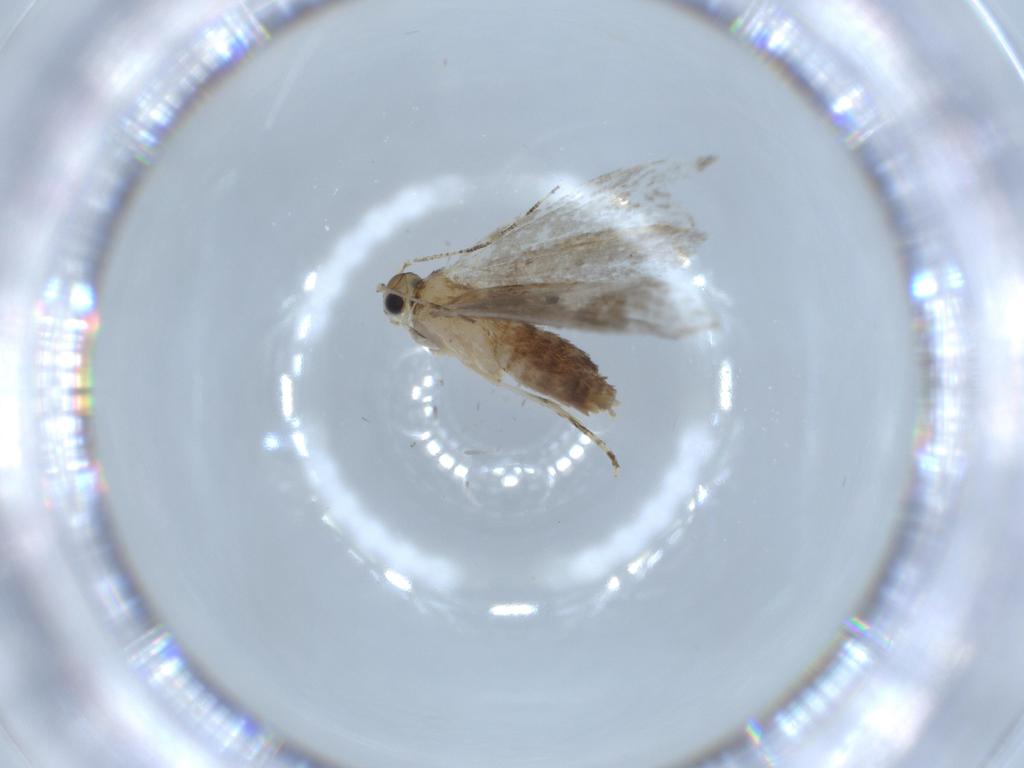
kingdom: Animalia
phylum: Arthropoda
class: Insecta
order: Lepidoptera
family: Tineidae
